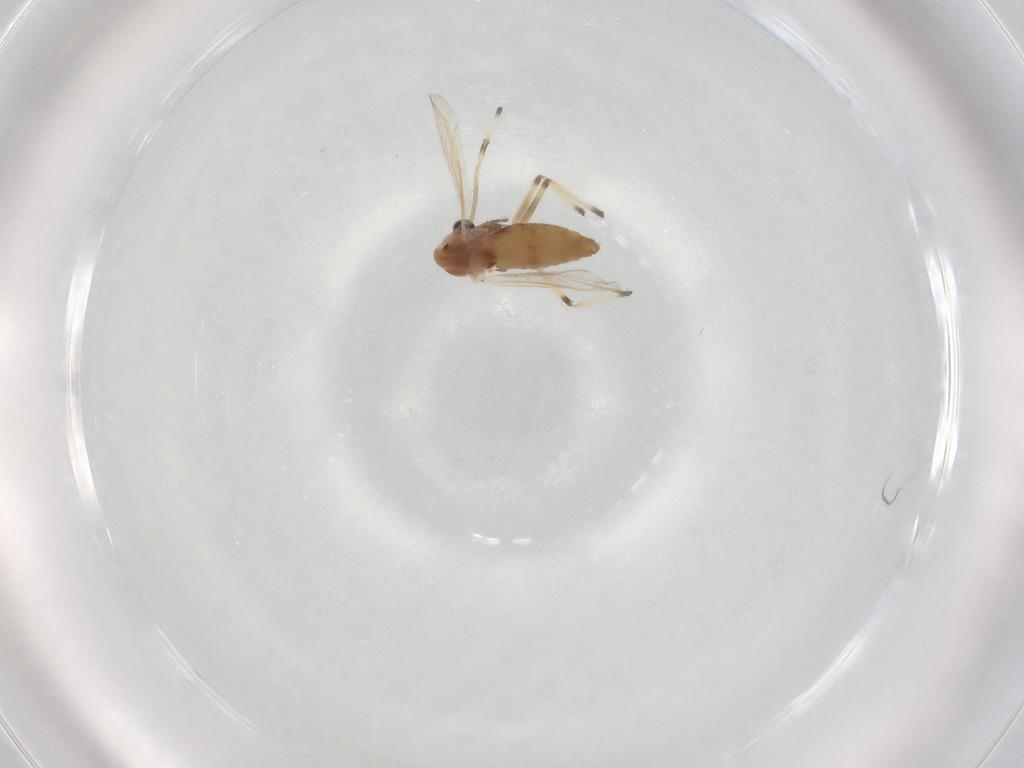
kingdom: Animalia
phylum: Arthropoda
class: Insecta
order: Diptera
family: Chironomidae
